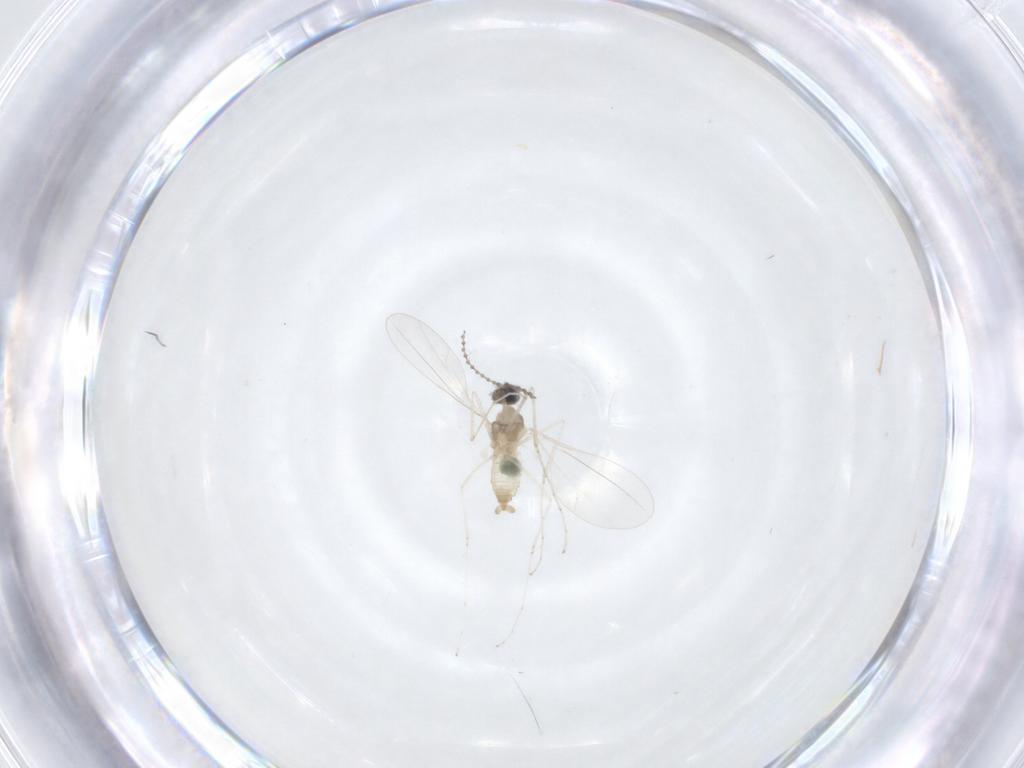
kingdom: Animalia
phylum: Arthropoda
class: Insecta
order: Diptera
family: Cecidomyiidae
